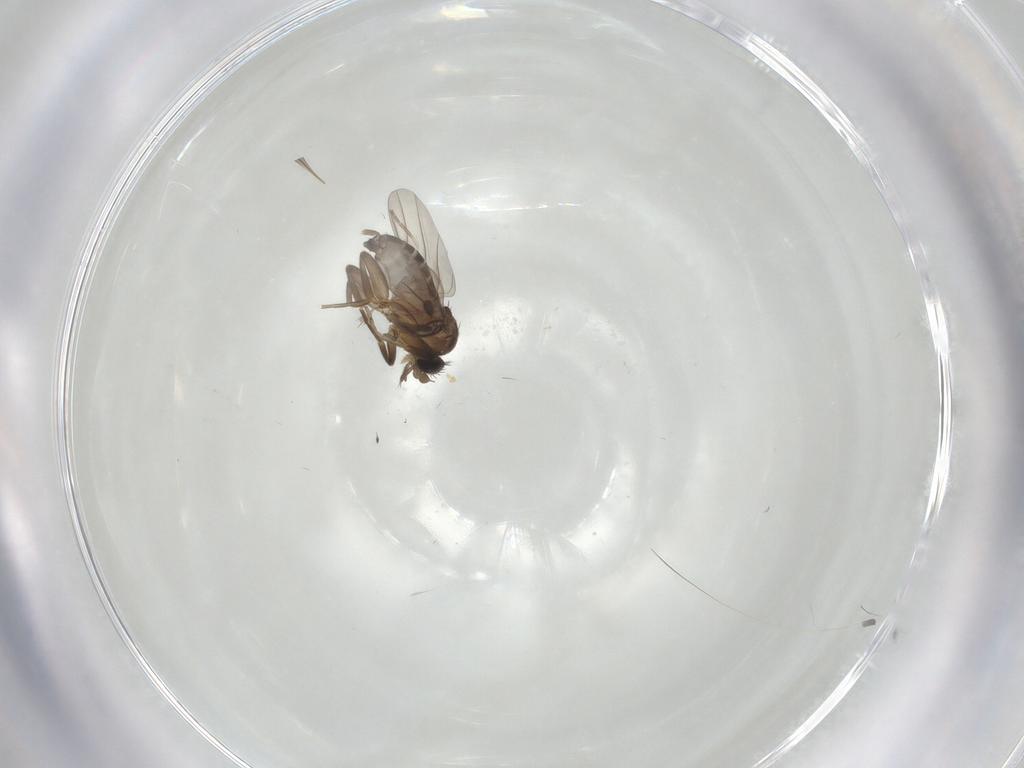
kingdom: Animalia
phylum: Arthropoda
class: Insecta
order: Diptera
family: Phoridae
